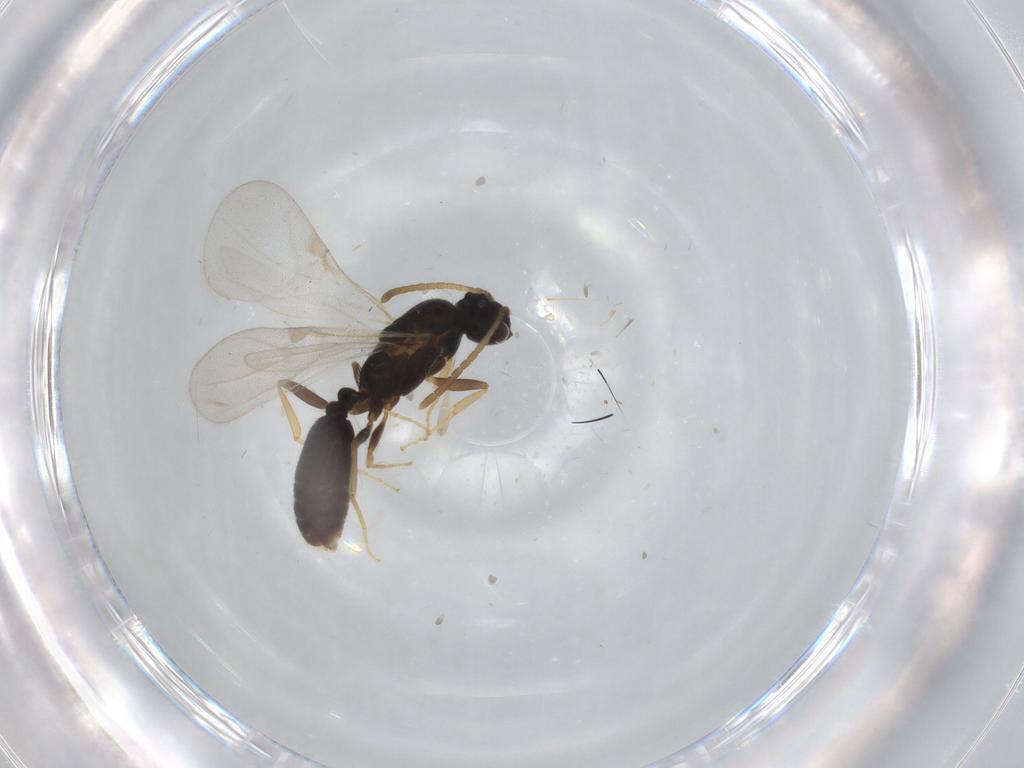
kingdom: Animalia
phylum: Arthropoda
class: Insecta
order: Hymenoptera
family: Formicidae
